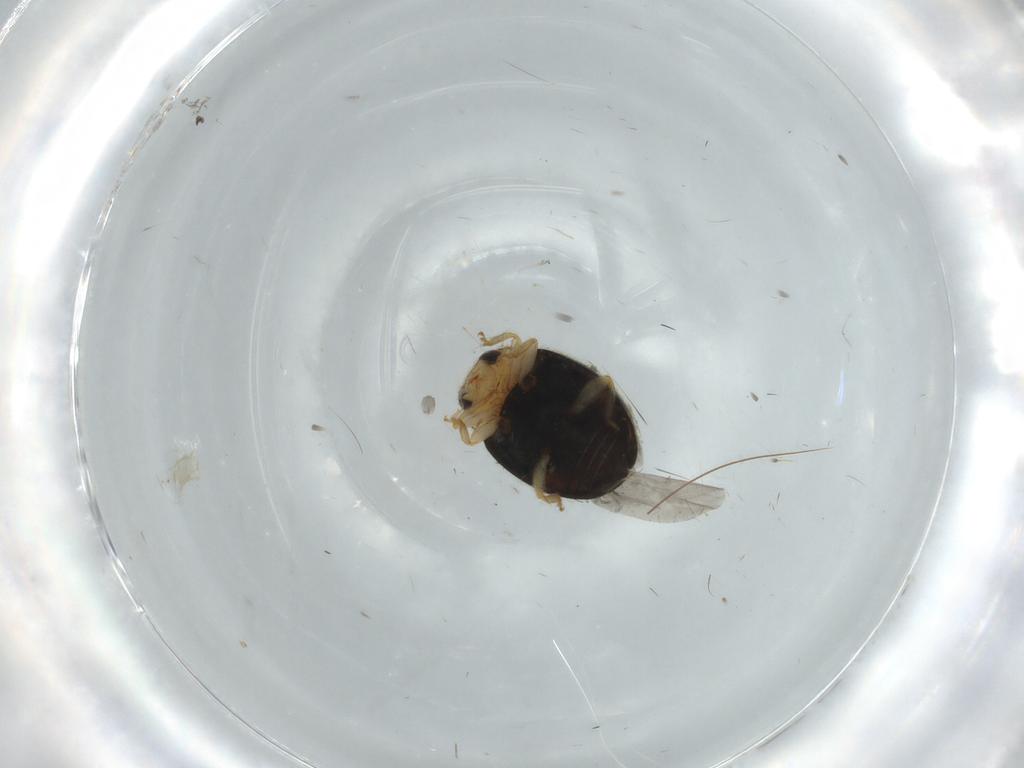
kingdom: Animalia
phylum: Arthropoda
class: Insecta
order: Coleoptera
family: Coccinellidae
